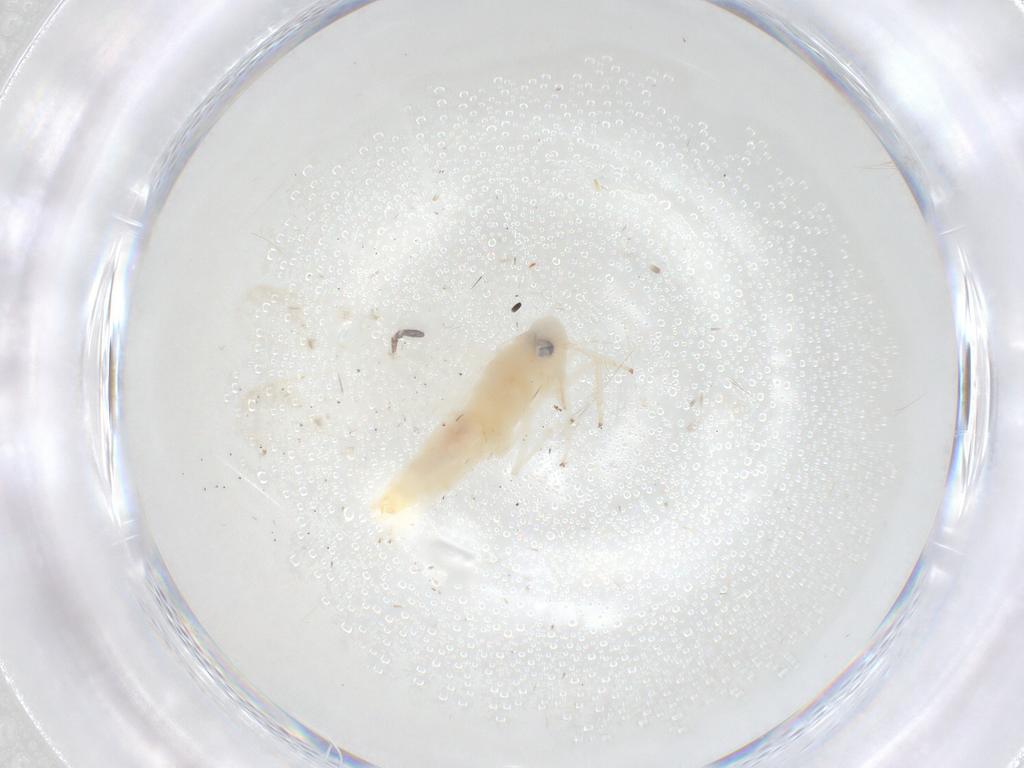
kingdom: Animalia
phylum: Arthropoda
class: Insecta
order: Hemiptera
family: Cicadellidae
